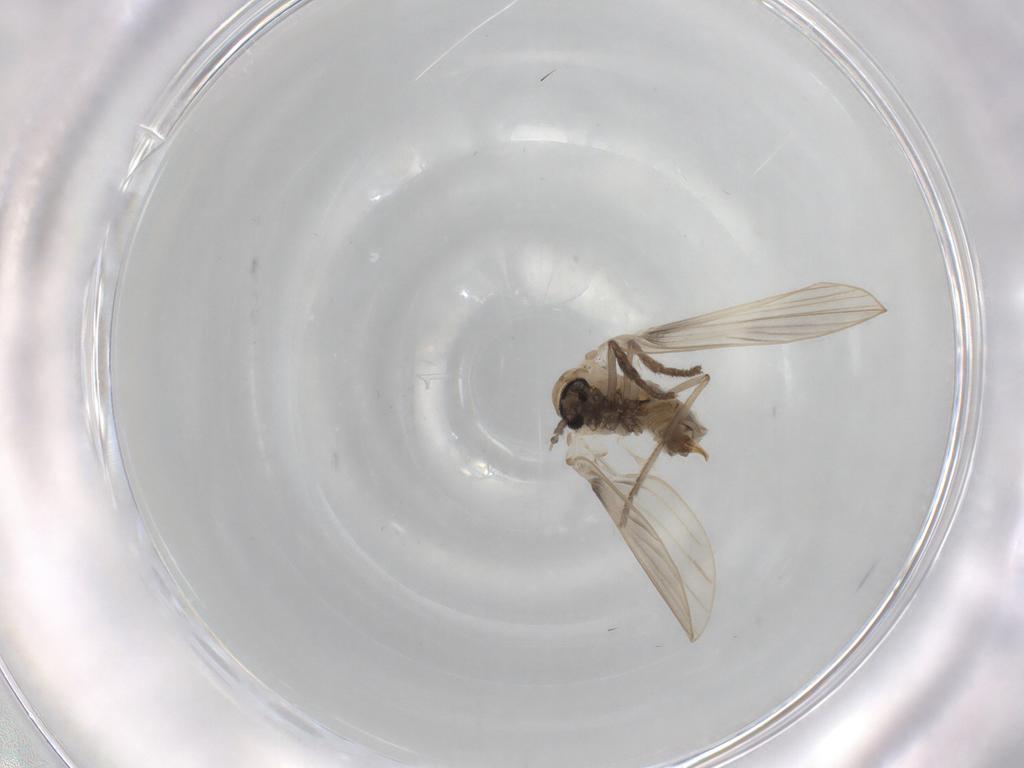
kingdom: Animalia
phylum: Arthropoda
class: Insecta
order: Diptera
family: Psychodidae
